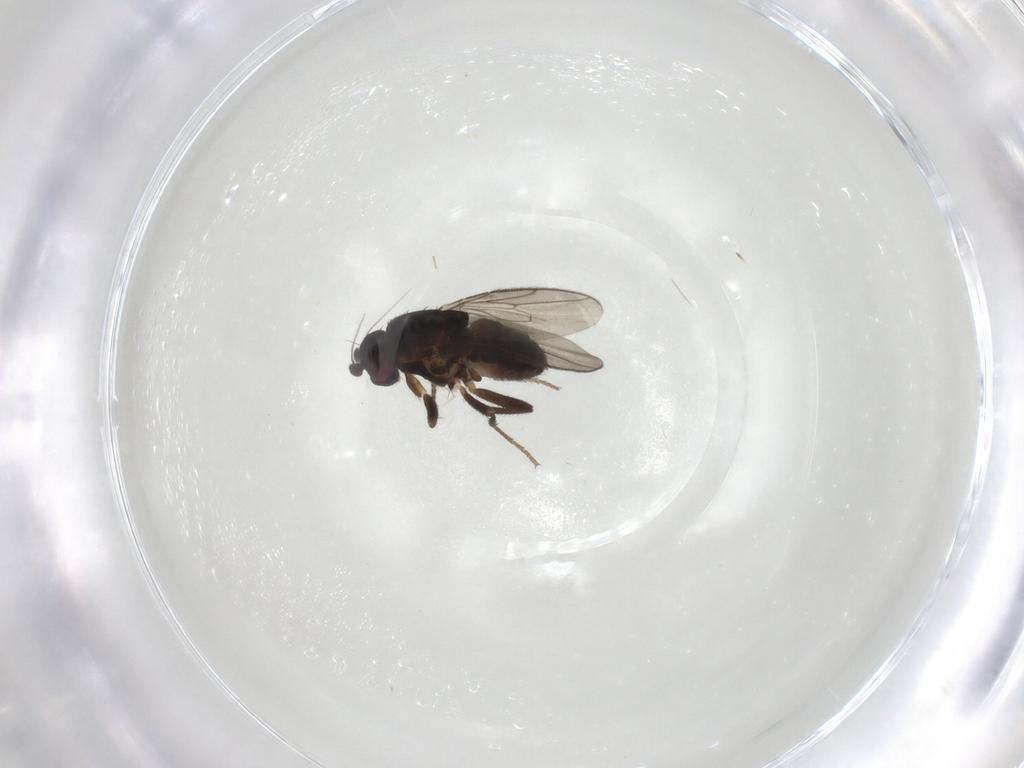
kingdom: Animalia
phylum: Arthropoda
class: Insecta
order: Diptera
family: Sphaeroceridae
